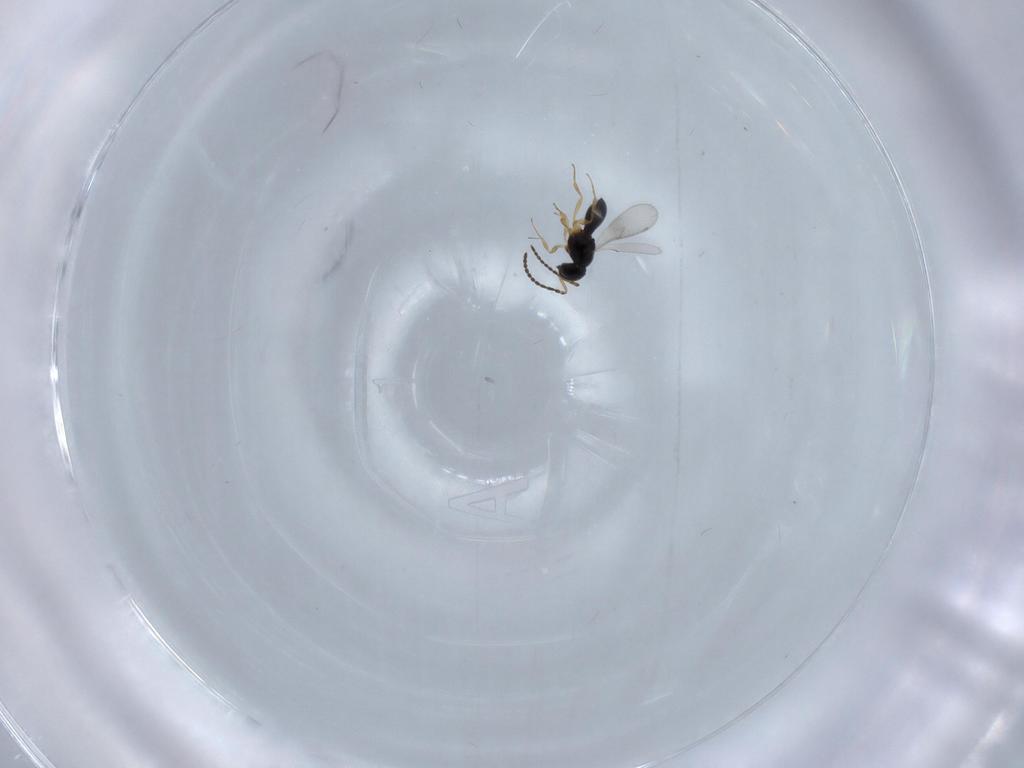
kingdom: Animalia
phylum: Arthropoda
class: Insecta
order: Hymenoptera
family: Scelionidae
